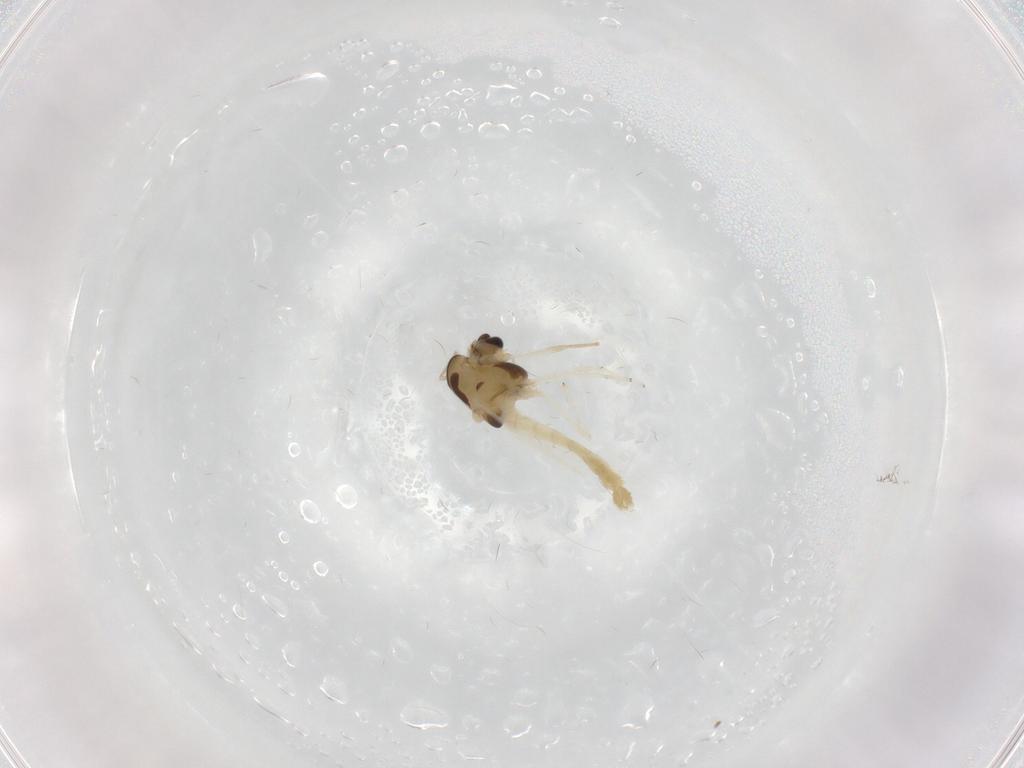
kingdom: Animalia
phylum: Arthropoda
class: Insecta
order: Diptera
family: Chironomidae
